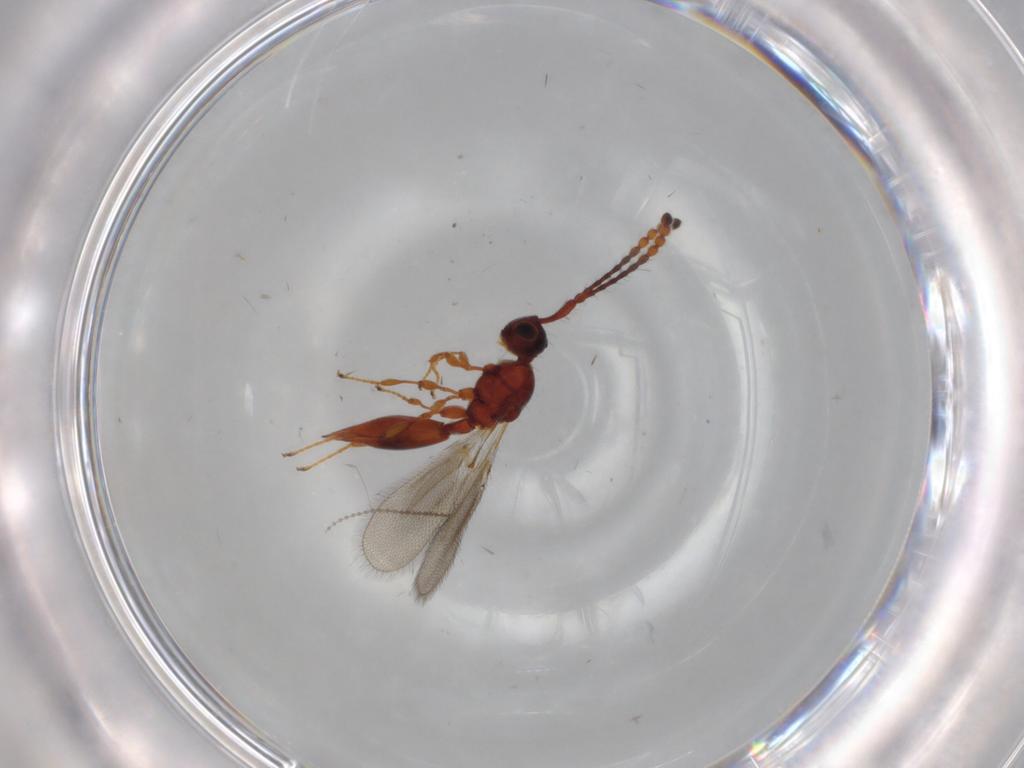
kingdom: Animalia
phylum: Arthropoda
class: Insecta
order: Hymenoptera
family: Diapriidae
